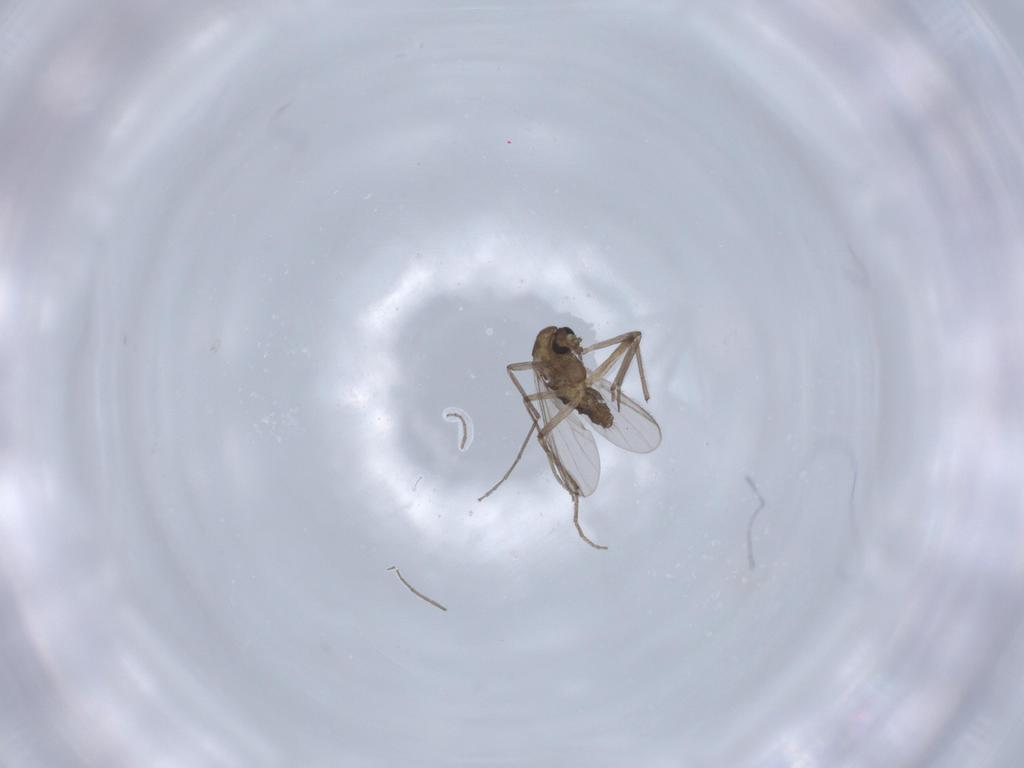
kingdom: Animalia
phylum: Arthropoda
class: Insecta
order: Diptera
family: Chironomidae
